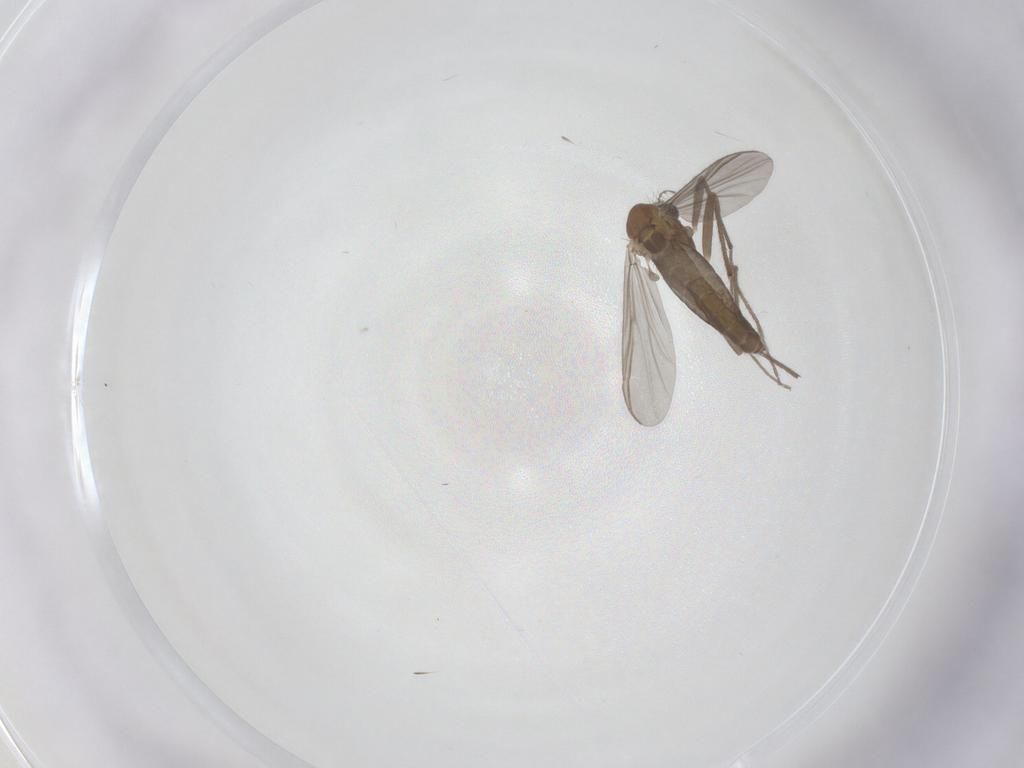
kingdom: Animalia
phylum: Arthropoda
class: Insecta
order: Diptera
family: Chironomidae
